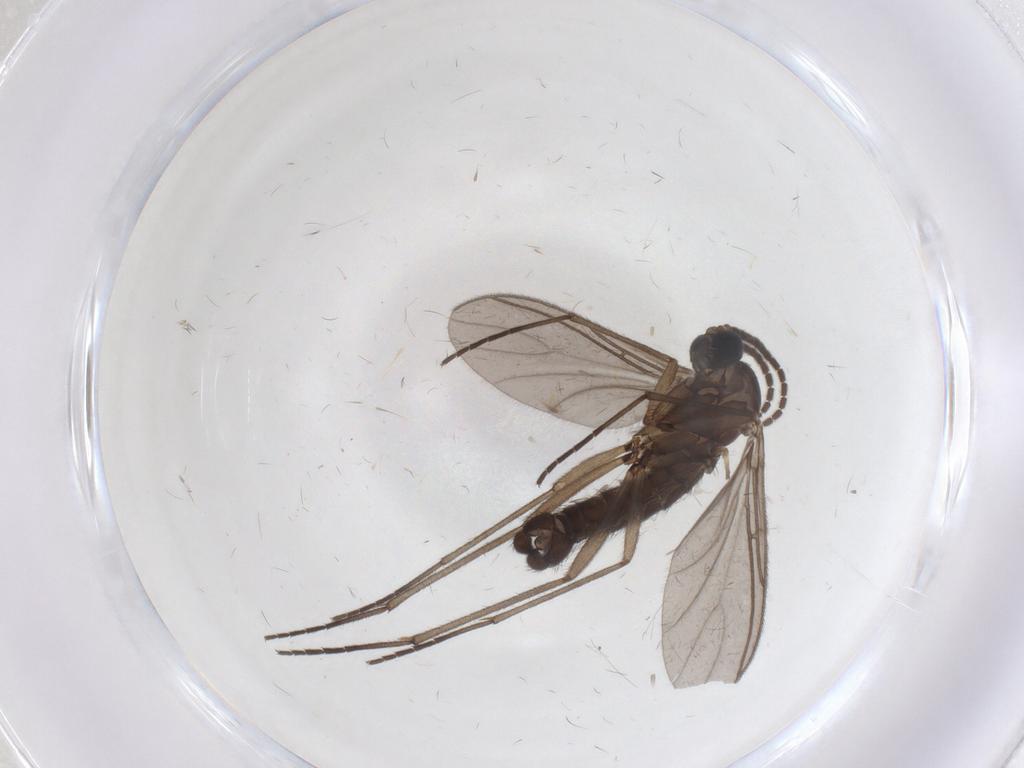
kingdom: Animalia
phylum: Arthropoda
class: Insecta
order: Diptera
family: Sciaridae
